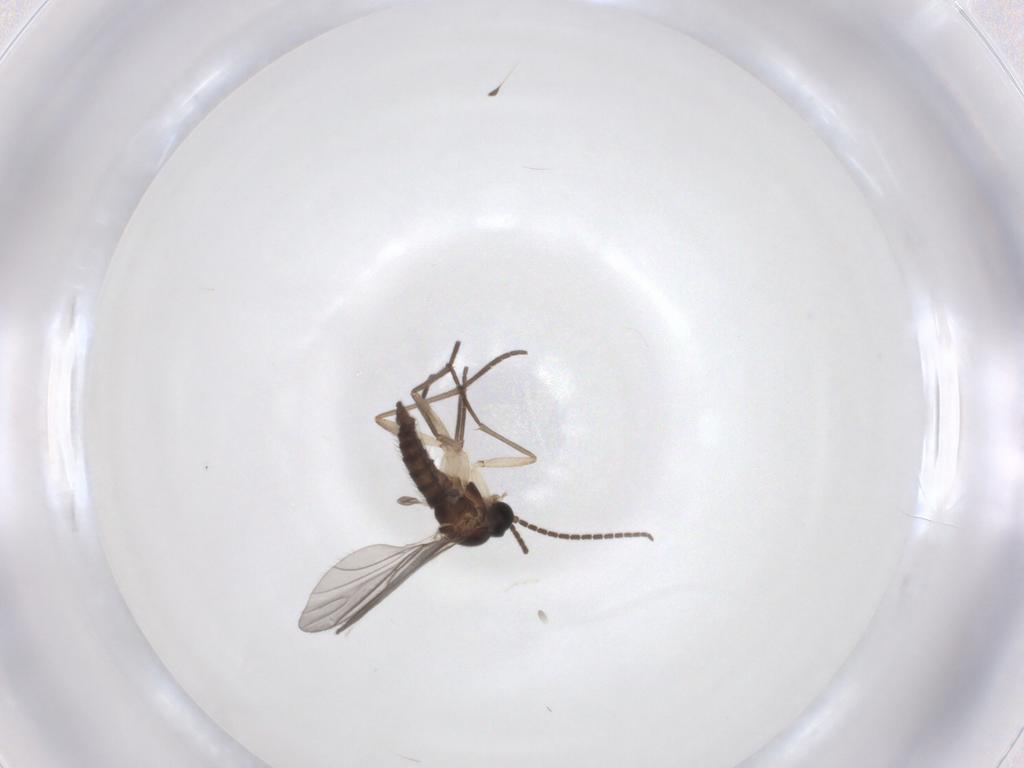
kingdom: Animalia
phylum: Arthropoda
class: Insecta
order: Diptera
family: Sciaridae
